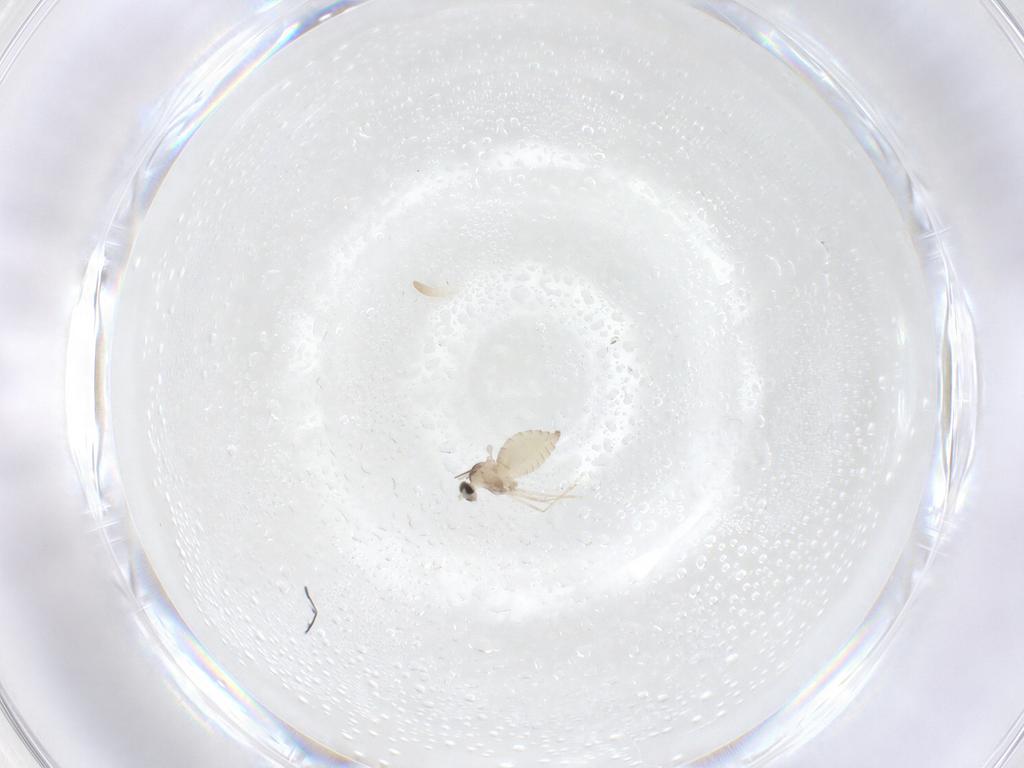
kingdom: Animalia
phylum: Arthropoda
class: Insecta
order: Diptera
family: Cecidomyiidae
